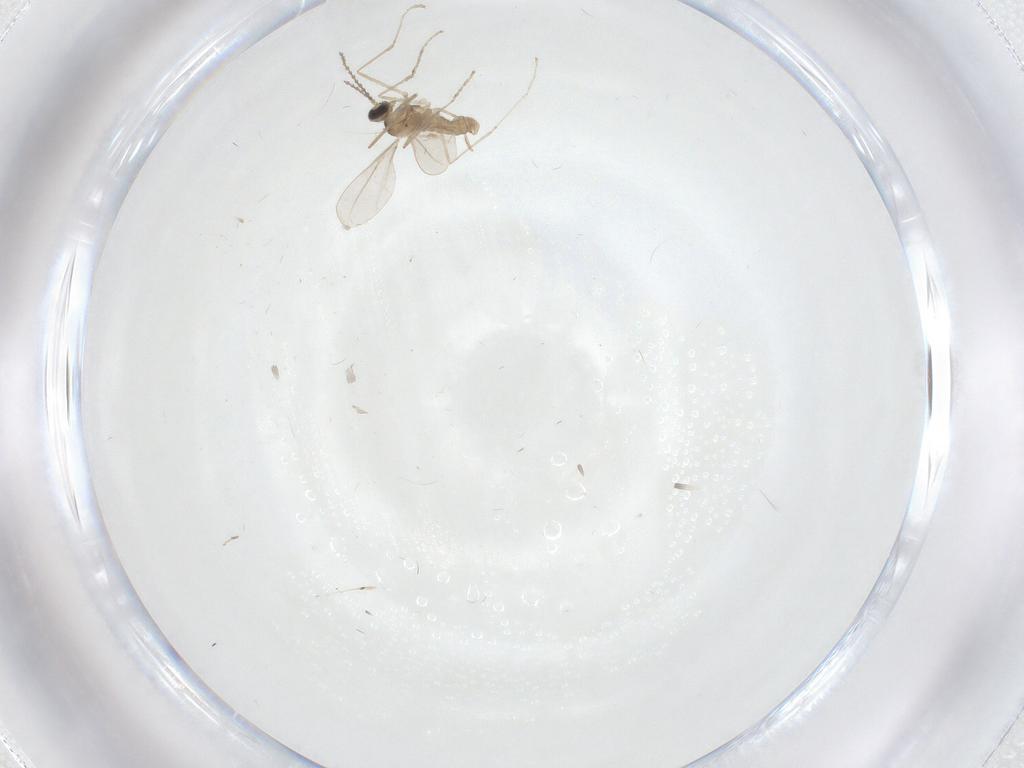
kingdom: Animalia
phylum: Arthropoda
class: Insecta
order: Diptera
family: Cecidomyiidae
